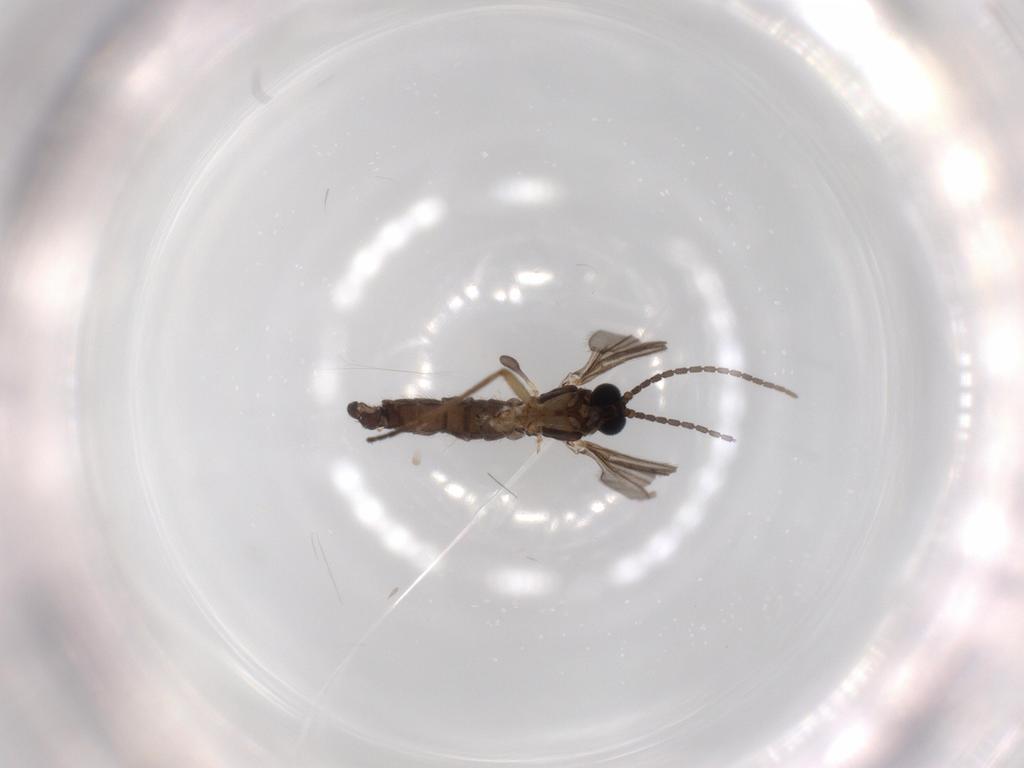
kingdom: Animalia
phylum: Arthropoda
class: Insecta
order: Diptera
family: Sciaridae
